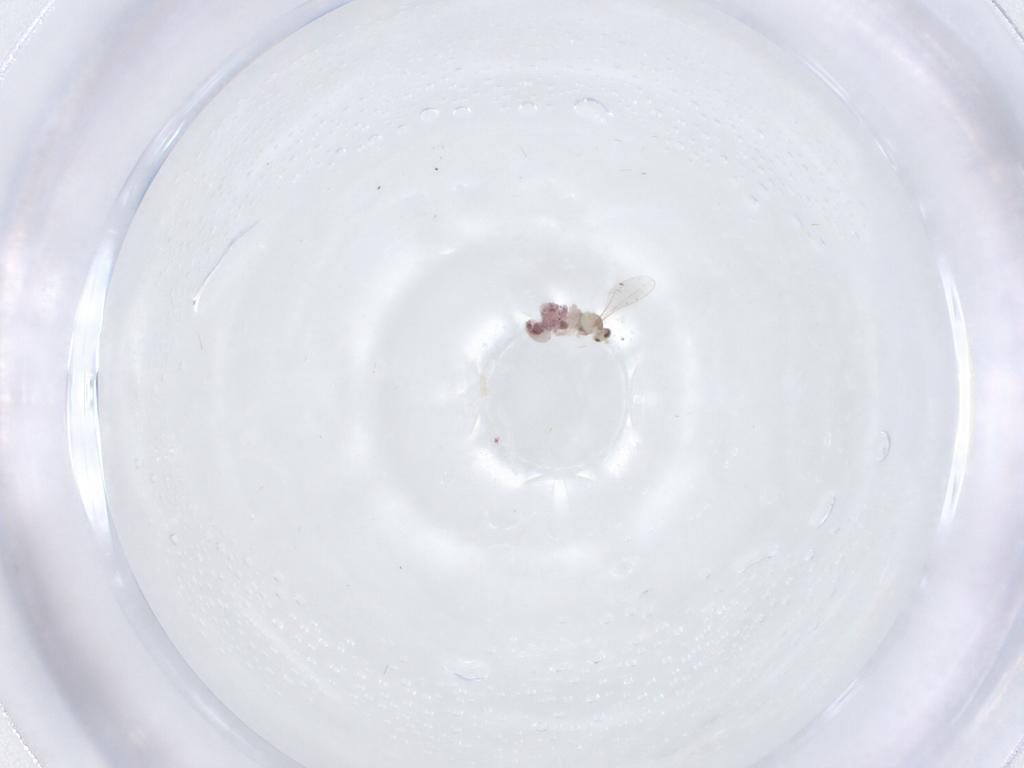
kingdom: Animalia
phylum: Arthropoda
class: Insecta
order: Diptera
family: Cecidomyiidae
